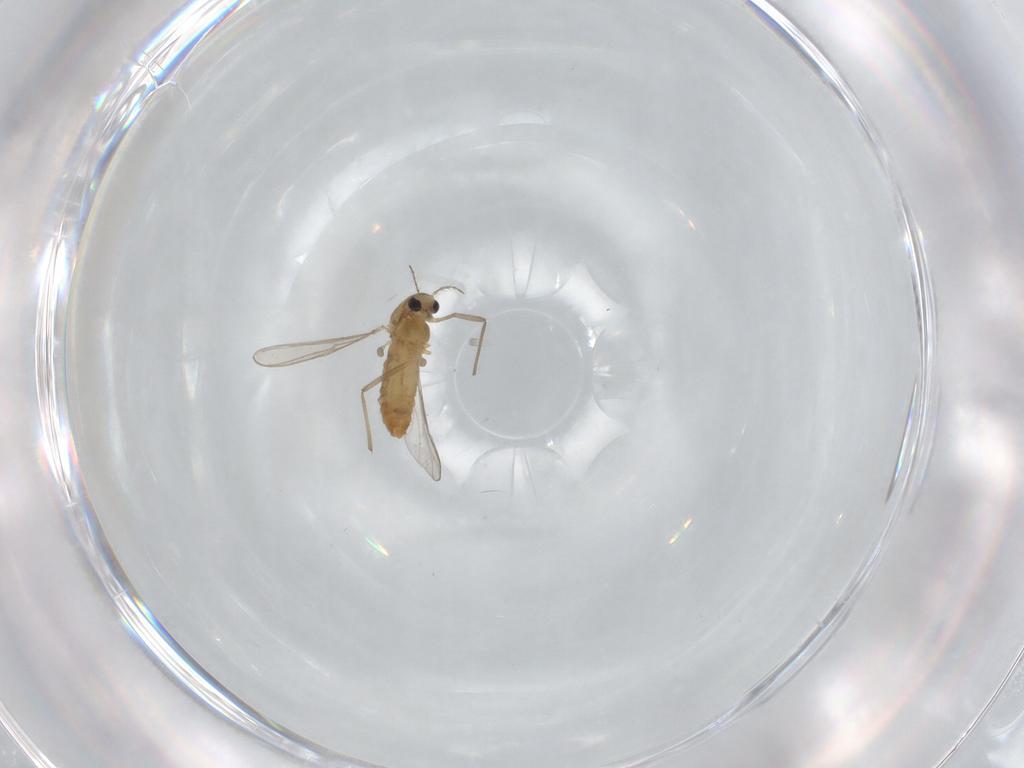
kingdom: Animalia
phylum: Arthropoda
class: Insecta
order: Diptera
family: Chironomidae
